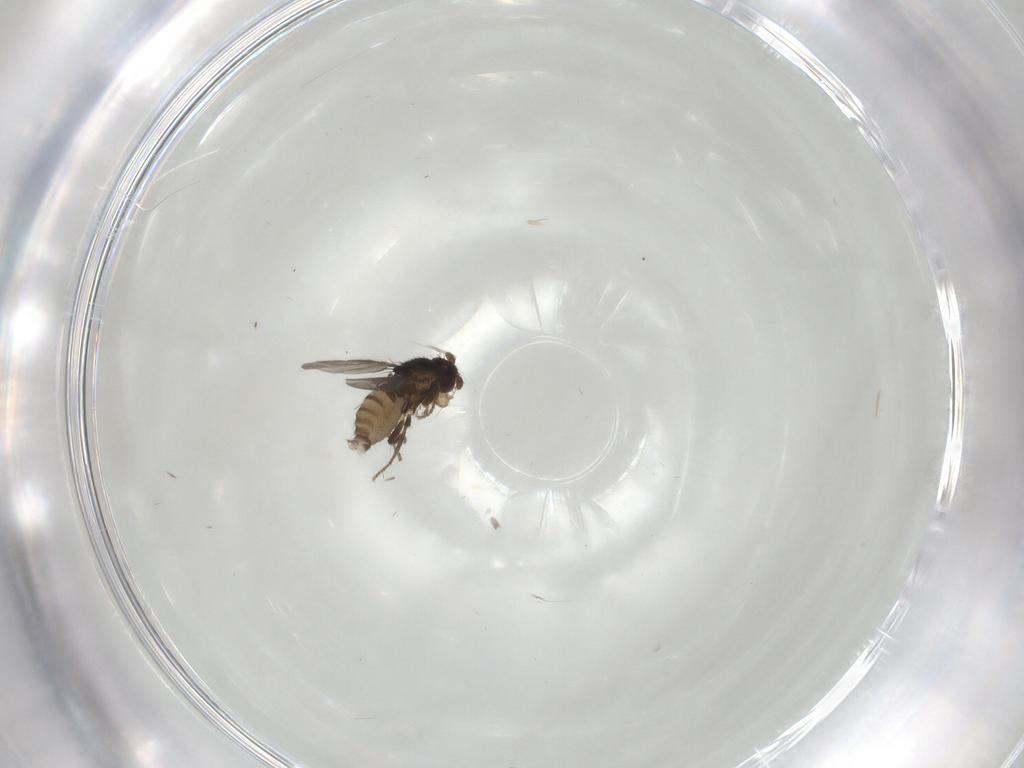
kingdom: Animalia
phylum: Arthropoda
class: Insecta
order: Diptera
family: Sphaeroceridae
